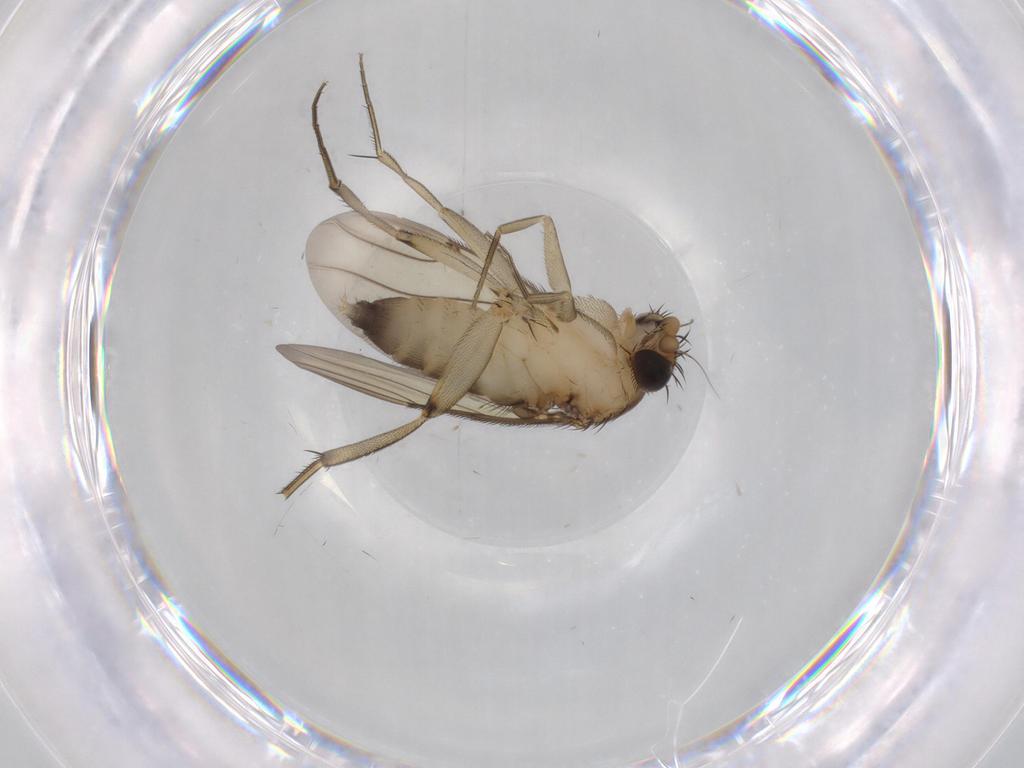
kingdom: Animalia
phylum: Arthropoda
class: Insecta
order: Diptera
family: Phoridae
